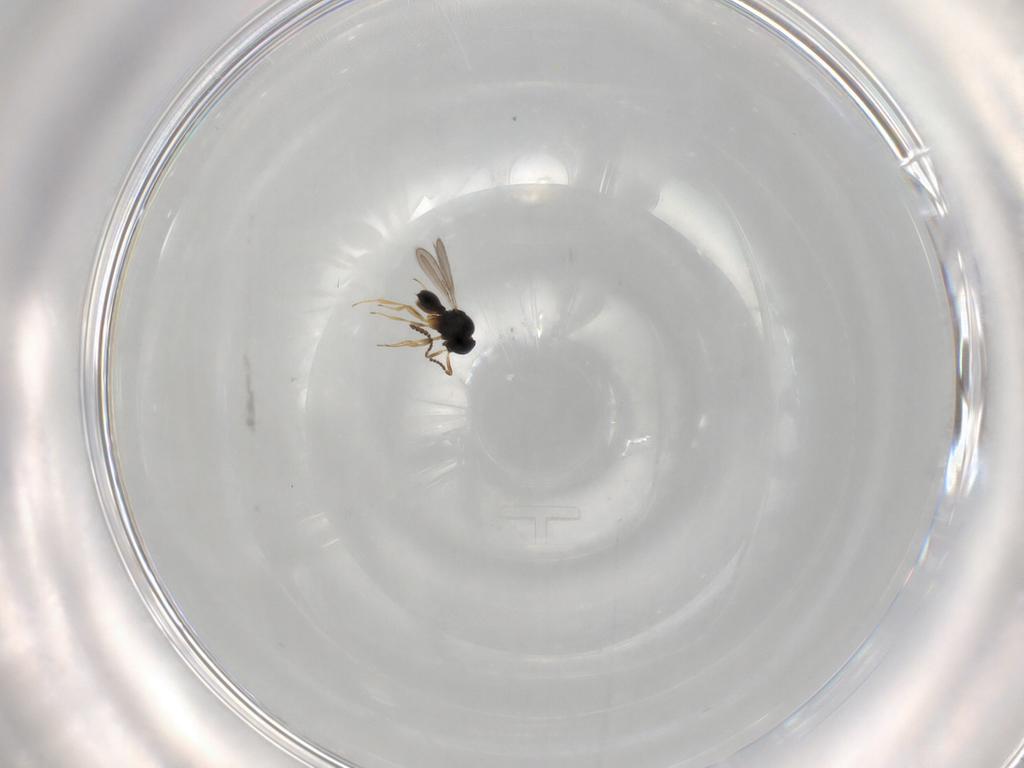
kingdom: Animalia
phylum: Arthropoda
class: Insecta
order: Hymenoptera
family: Scelionidae
